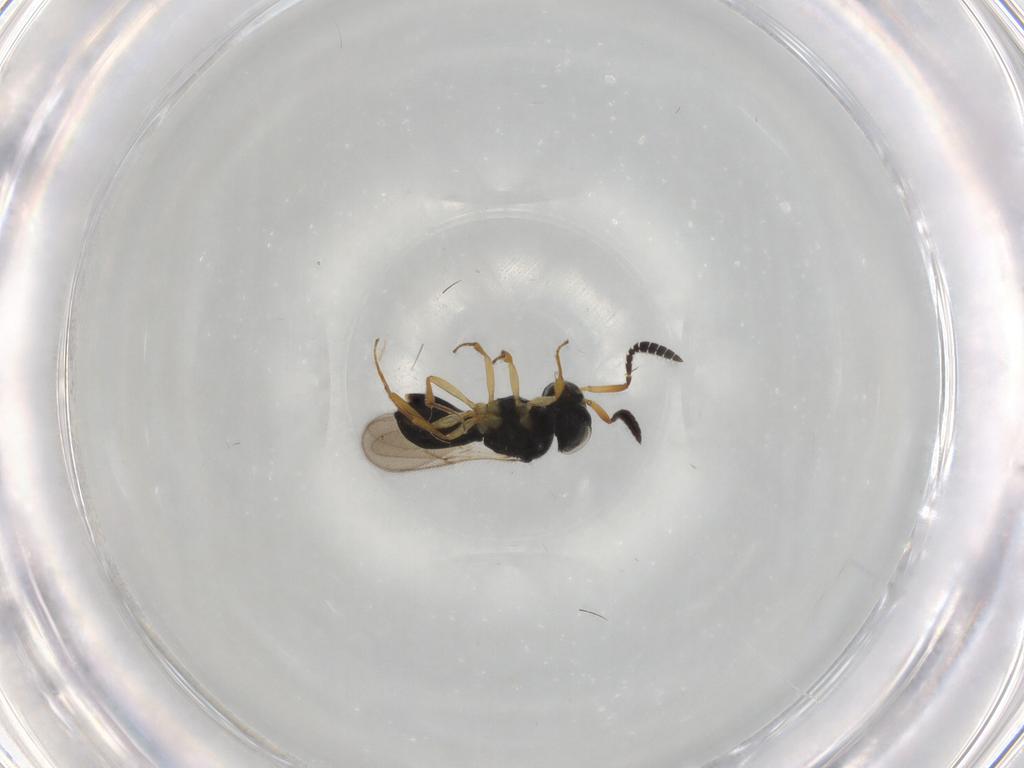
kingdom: Animalia
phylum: Arthropoda
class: Insecta
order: Hymenoptera
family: Scelionidae
